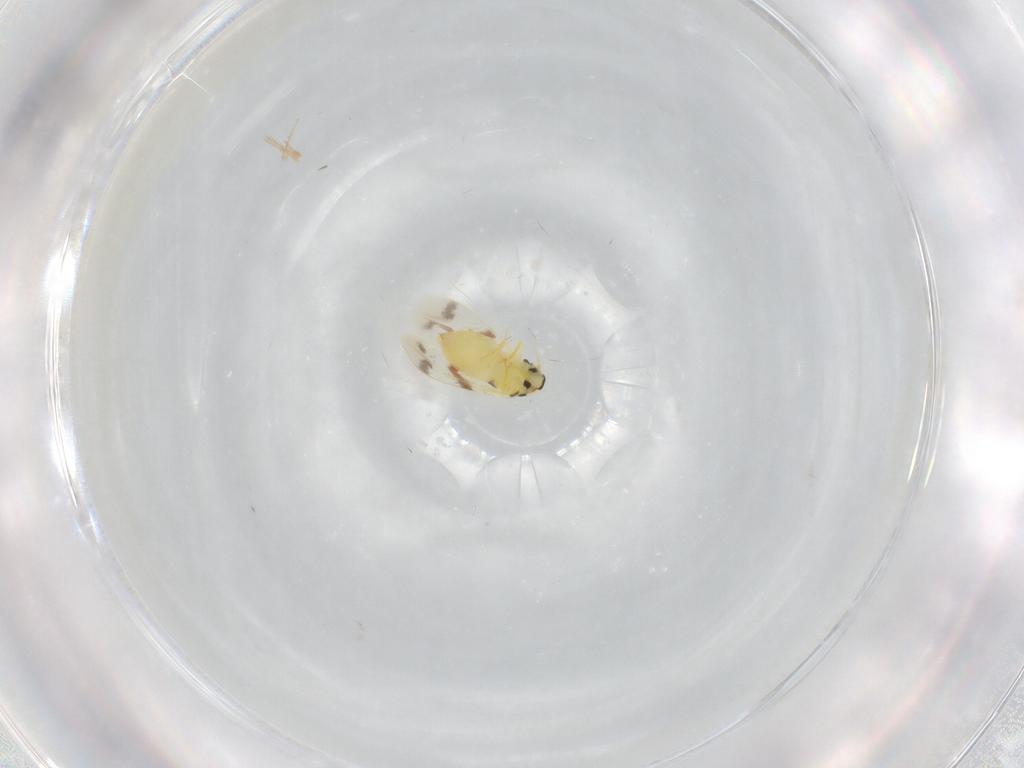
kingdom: Animalia
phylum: Arthropoda
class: Insecta
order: Hemiptera
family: Aleyrodidae
